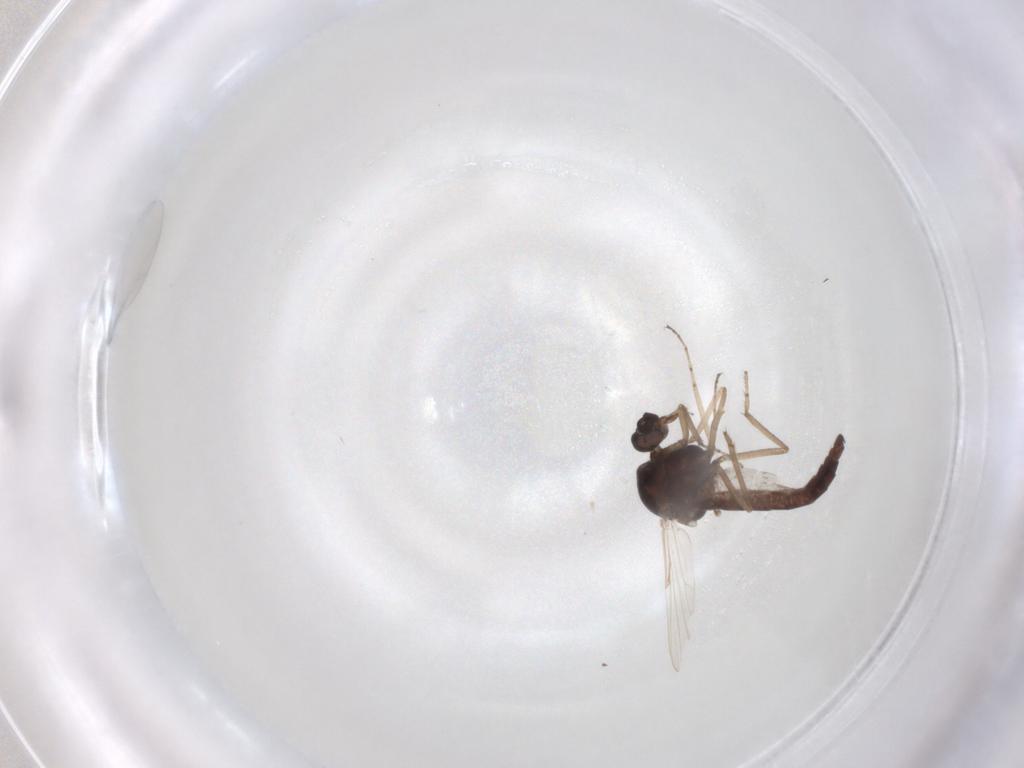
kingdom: Animalia
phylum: Arthropoda
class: Insecta
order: Diptera
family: Ceratopogonidae
